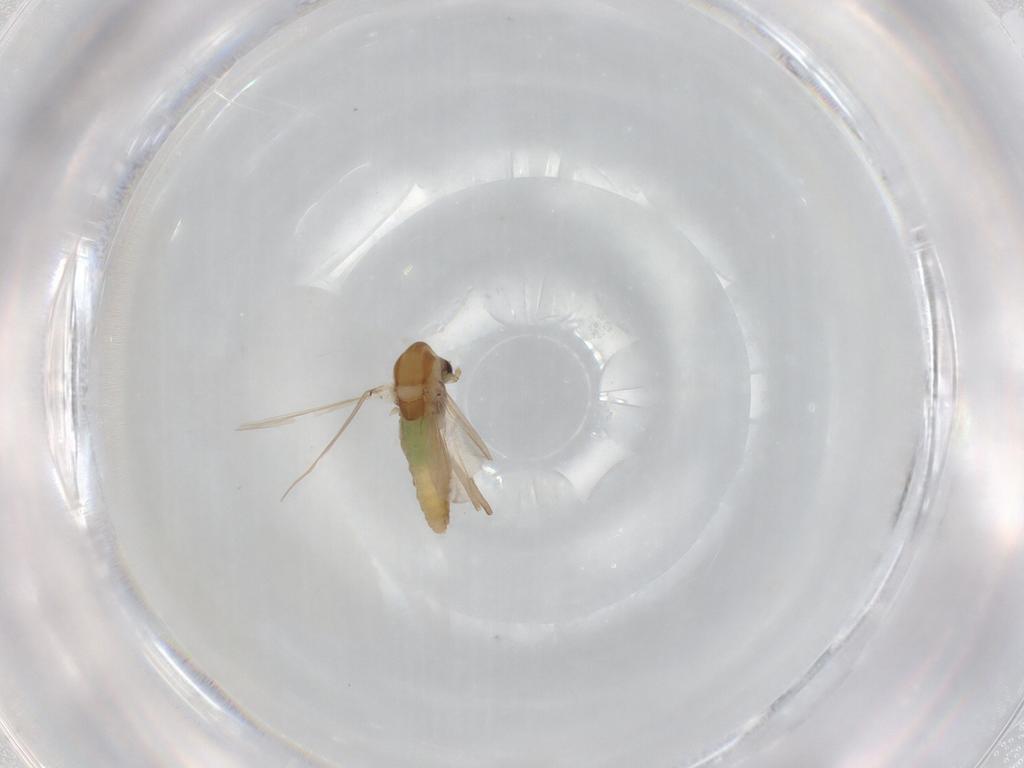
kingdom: Animalia
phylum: Arthropoda
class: Insecta
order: Diptera
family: Chironomidae
